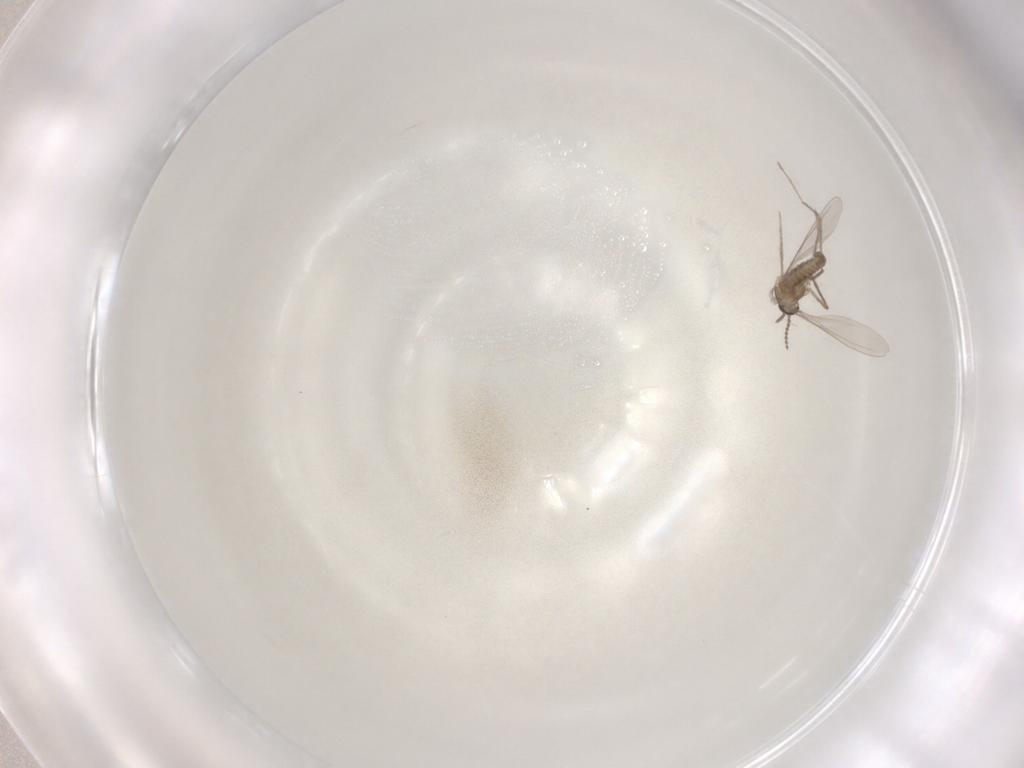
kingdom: Animalia
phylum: Arthropoda
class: Insecta
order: Diptera
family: Cecidomyiidae
